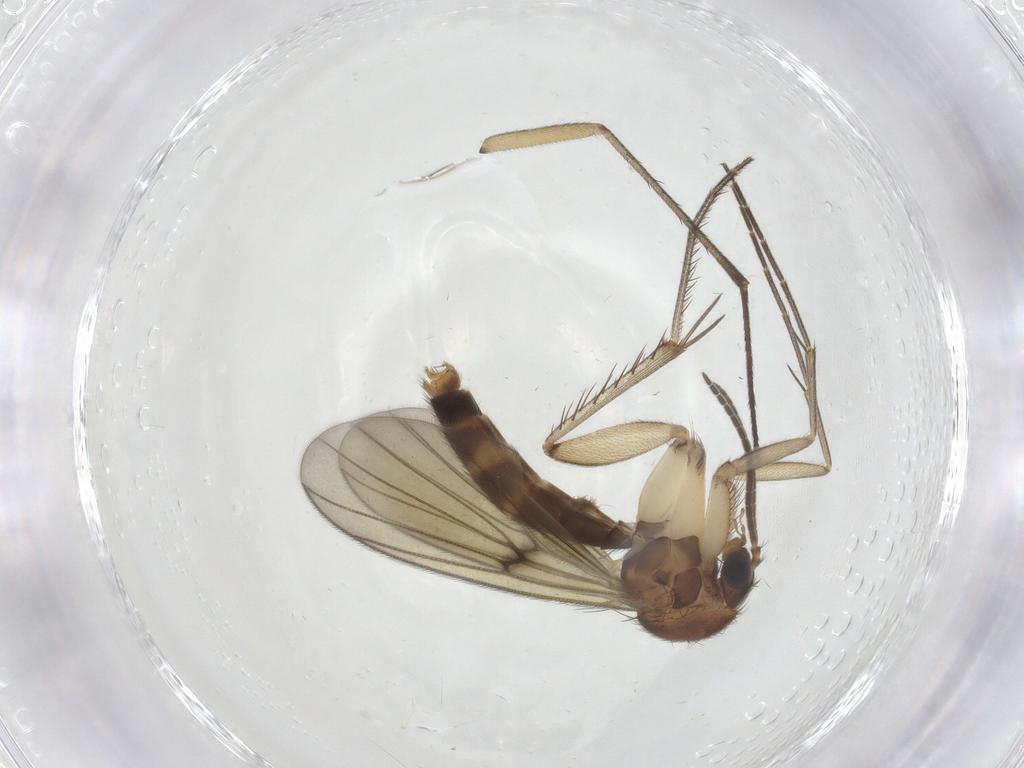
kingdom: Animalia
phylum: Arthropoda
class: Insecta
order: Diptera
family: Mycetophilidae
